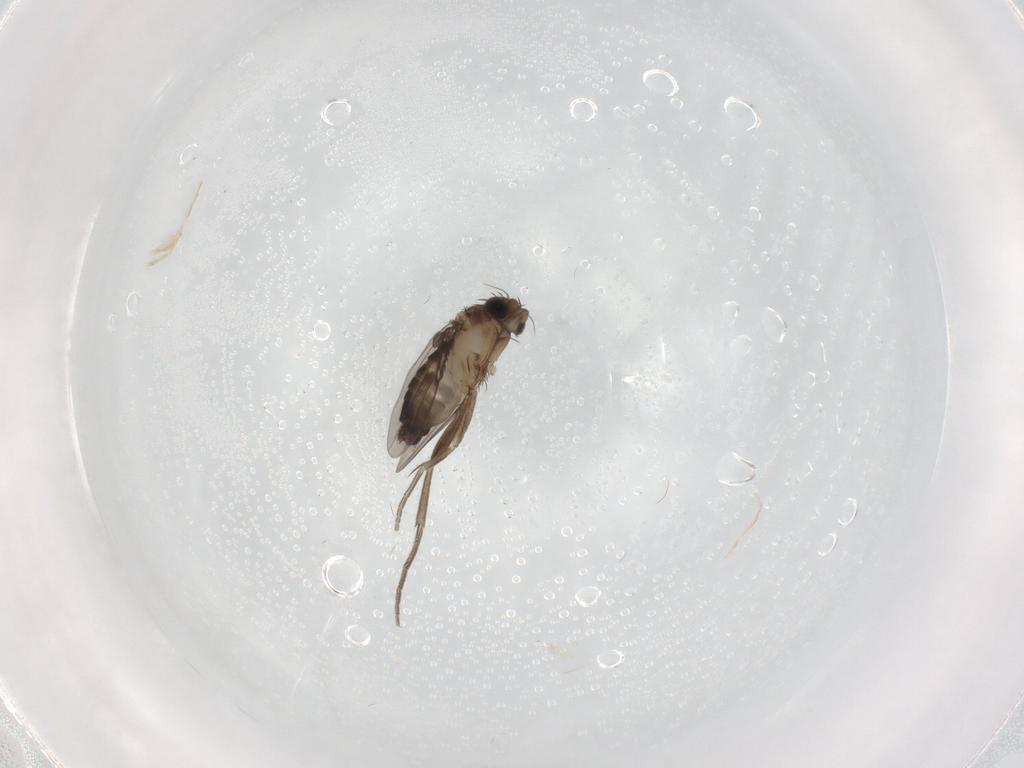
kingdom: Animalia
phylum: Arthropoda
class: Insecta
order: Diptera
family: Phoridae
